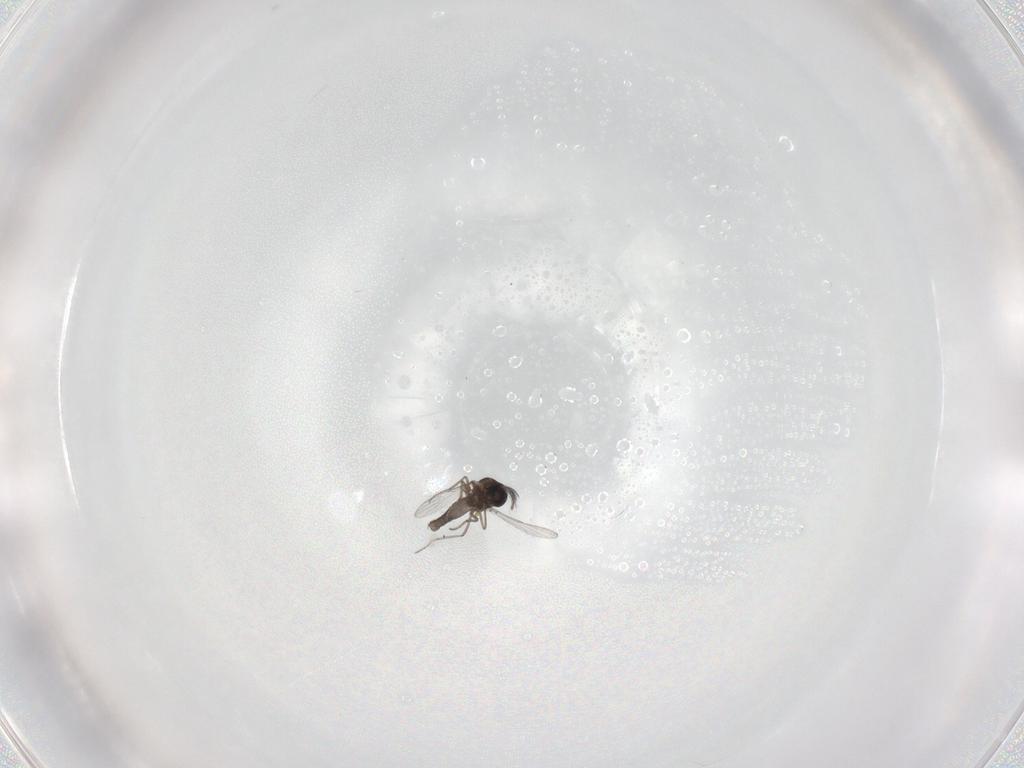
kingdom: Animalia
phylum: Arthropoda
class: Insecta
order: Diptera
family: Ceratopogonidae
